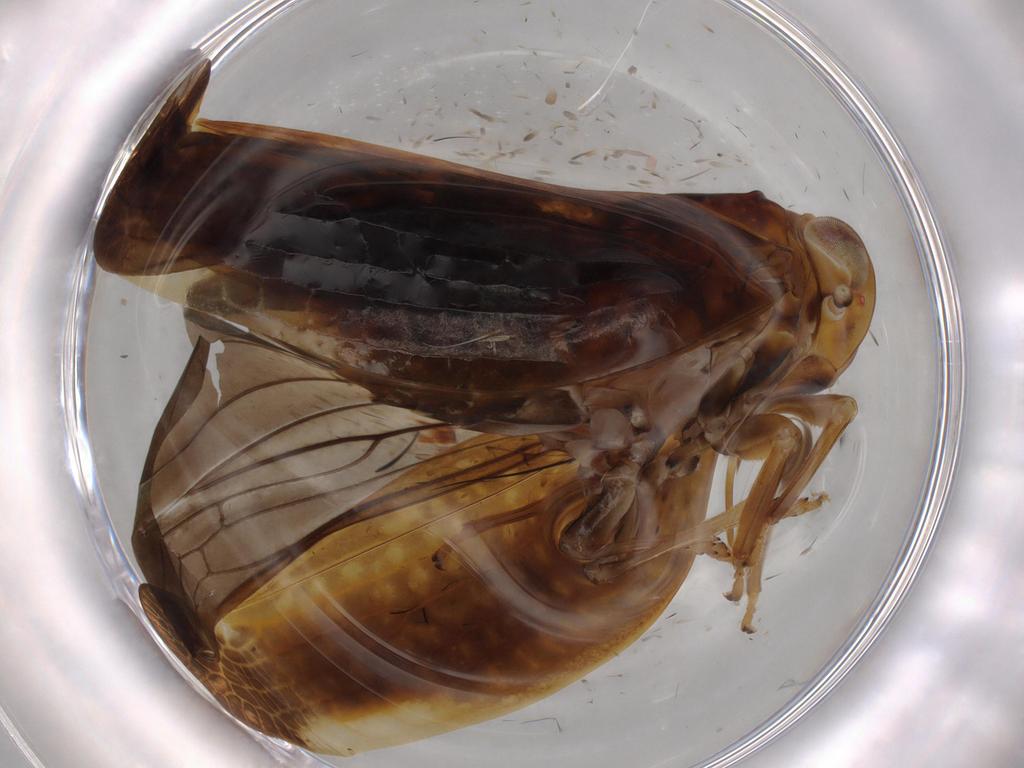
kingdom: Animalia
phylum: Arthropoda
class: Insecta
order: Hemiptera
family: Nogodinidae
